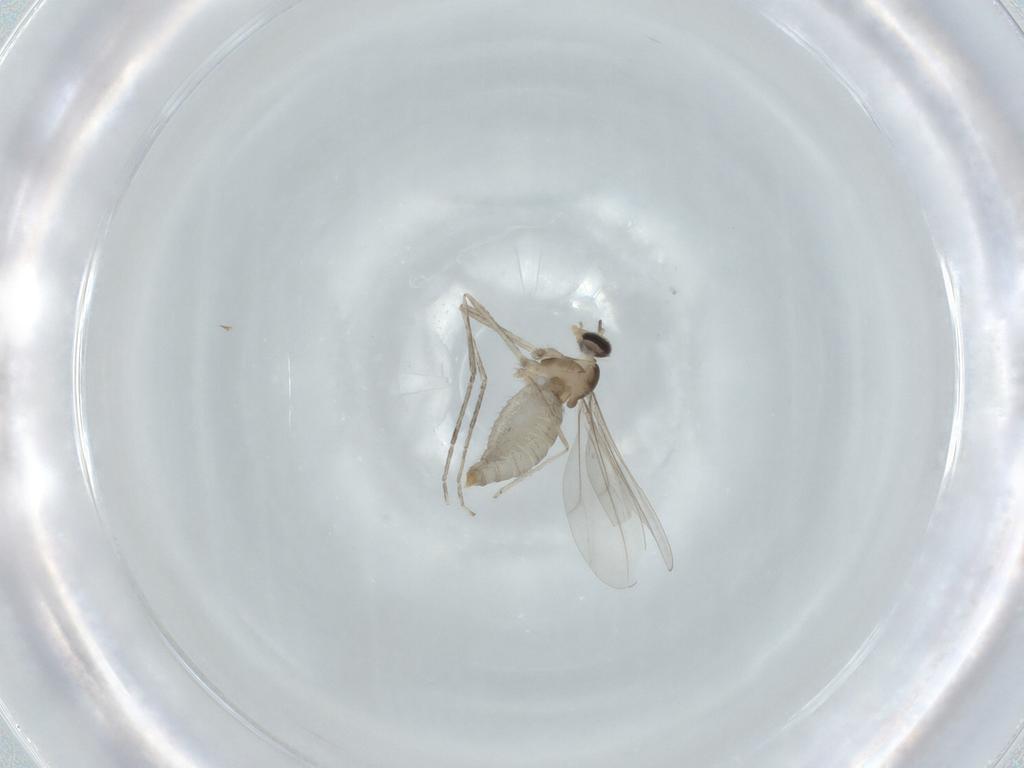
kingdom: Animalia
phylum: Arthropoda
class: Insecta
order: Diptera
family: Cecidomyiidae
